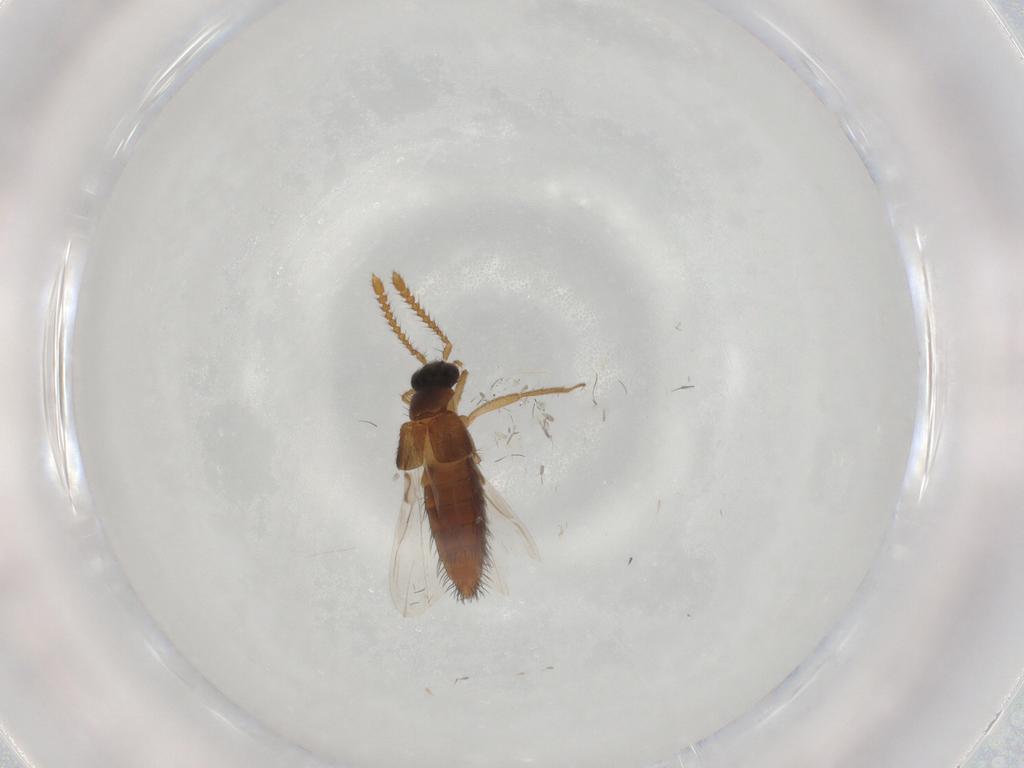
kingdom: Animalia
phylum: Arthropoda
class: Insecta
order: Coleoptera
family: Staphylinidae
